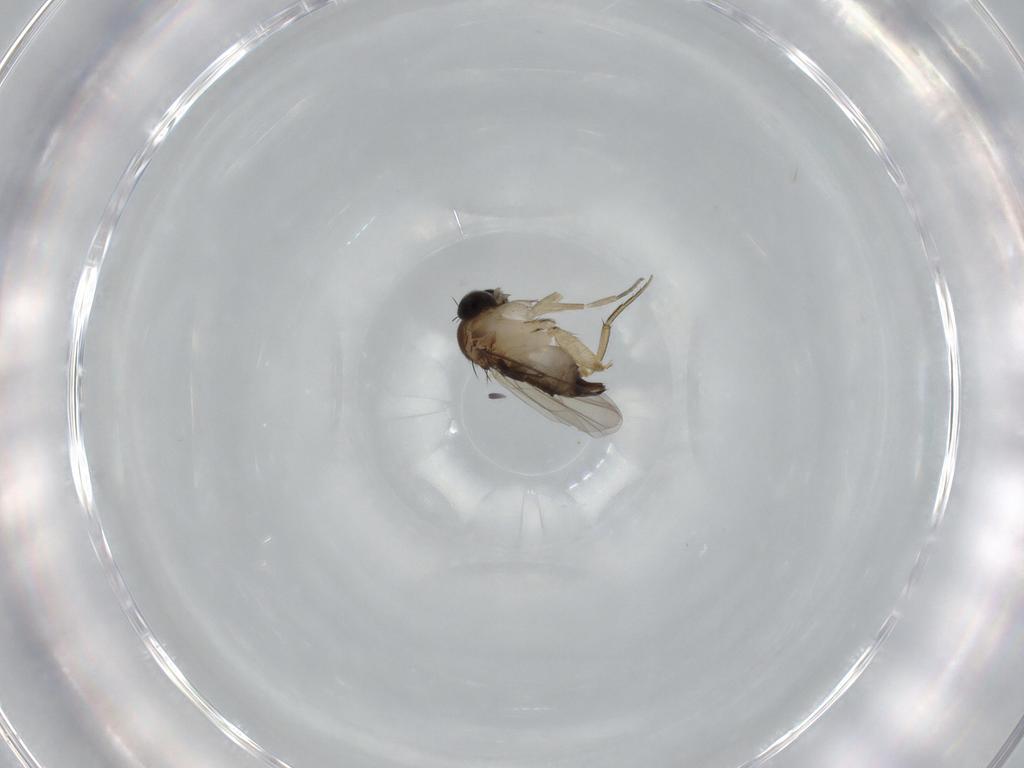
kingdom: Animalia
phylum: Arthropoda
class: Insecta
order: Diptera
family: Phoridae
